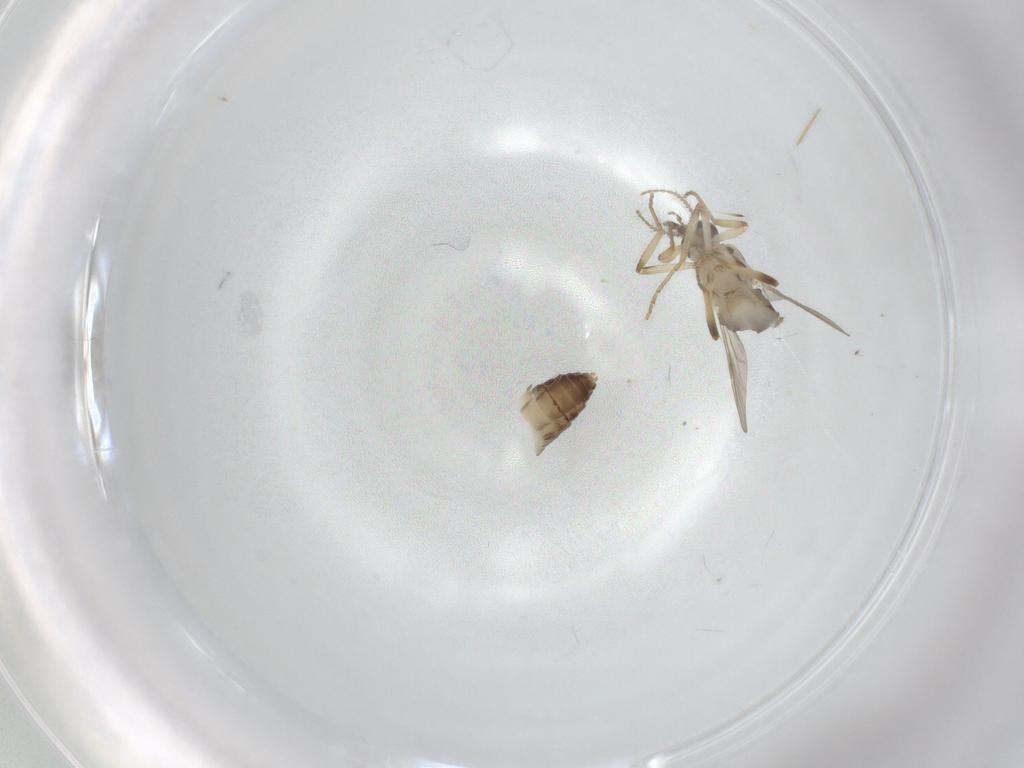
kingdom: Animalia
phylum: Arthropoda
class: Insecta
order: Diptera
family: Ceratopogonidae
